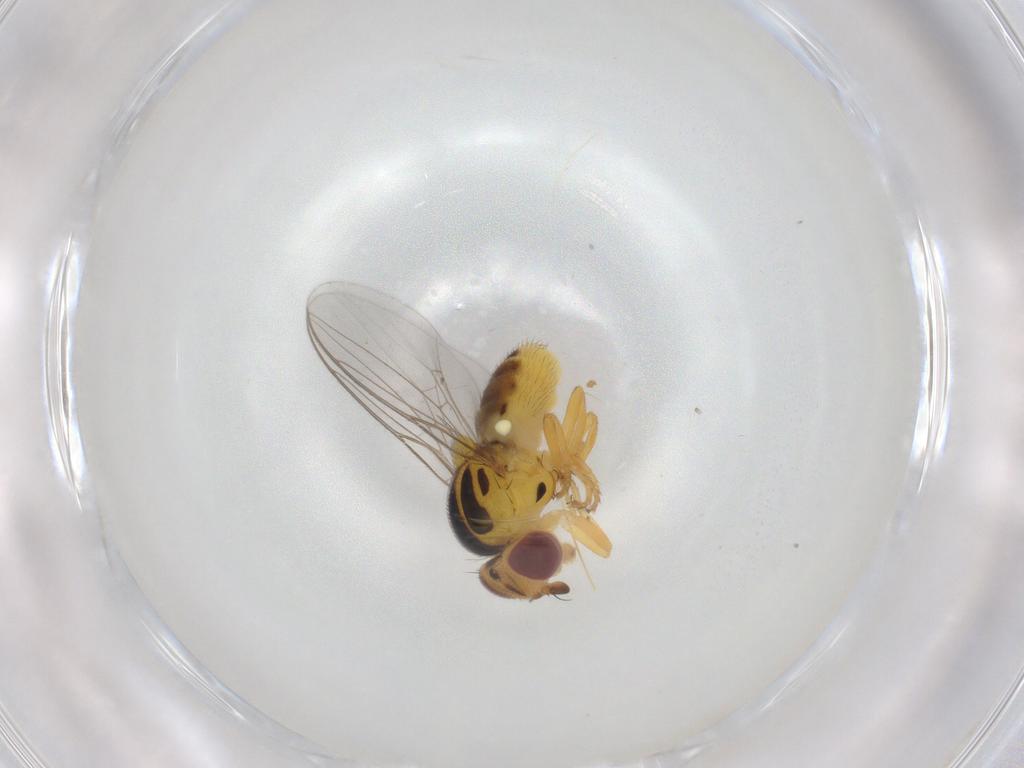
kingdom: Animalia
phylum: Arthropoda
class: Insecta
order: Diptera
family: Chloropidae
